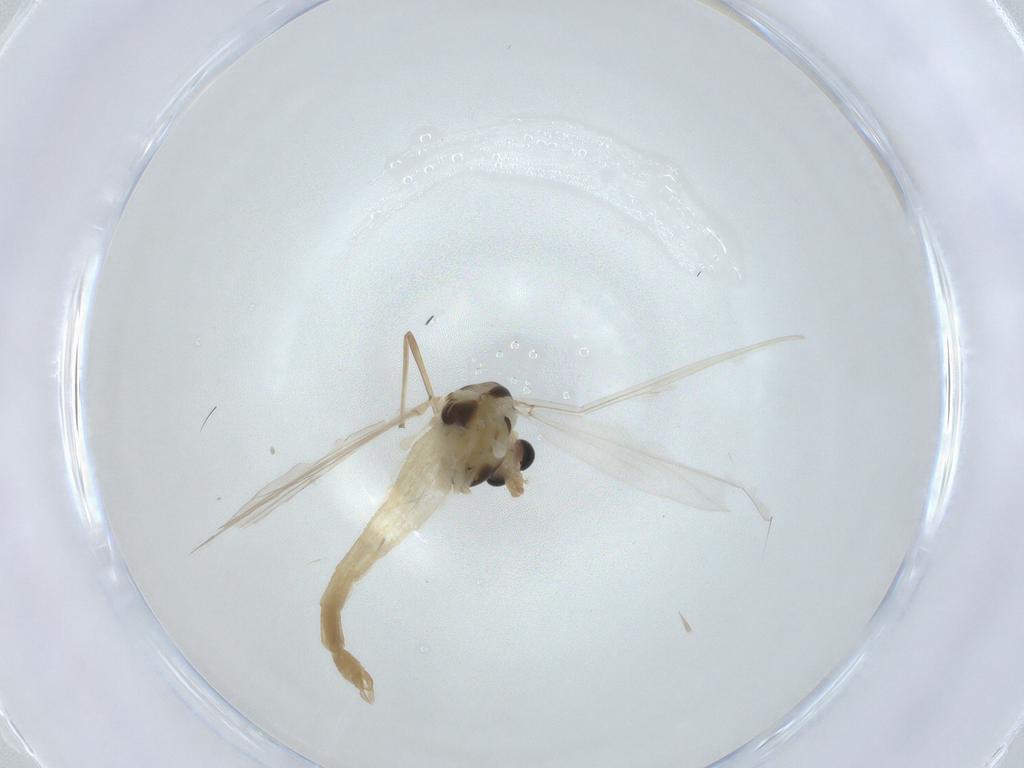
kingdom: Animalia
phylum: Arthropoda
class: Insecta
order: Diptera
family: Chironomidae
